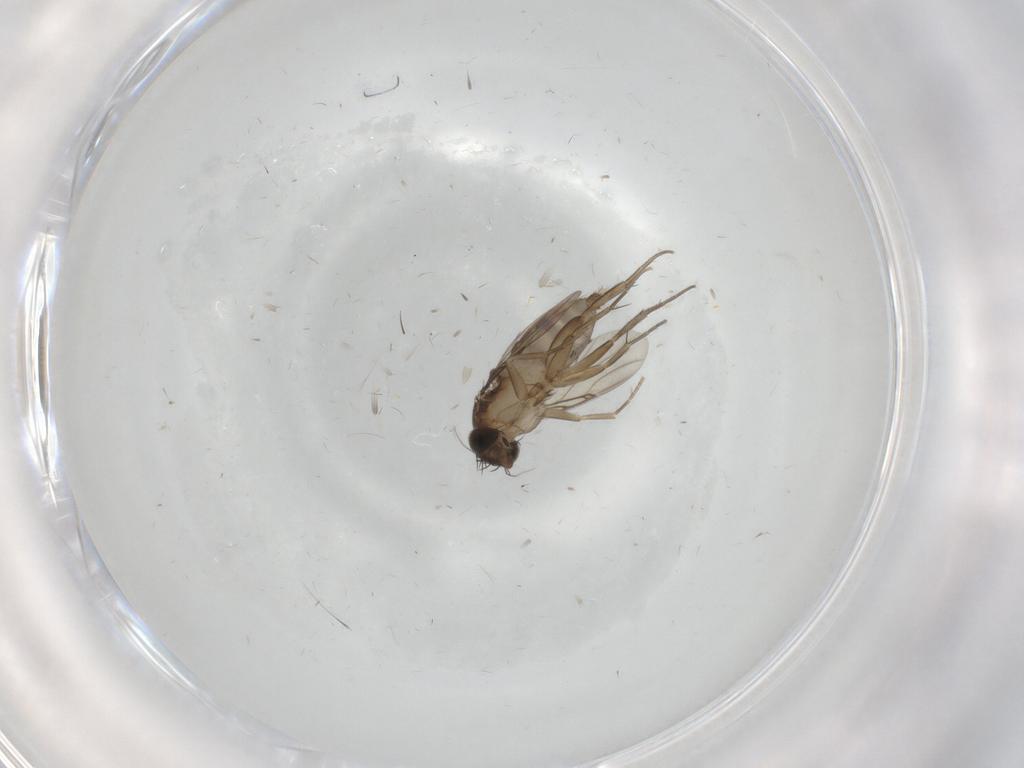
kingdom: Animalia
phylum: Arthropoda
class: Insecta
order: Diptera
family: Phoridae
